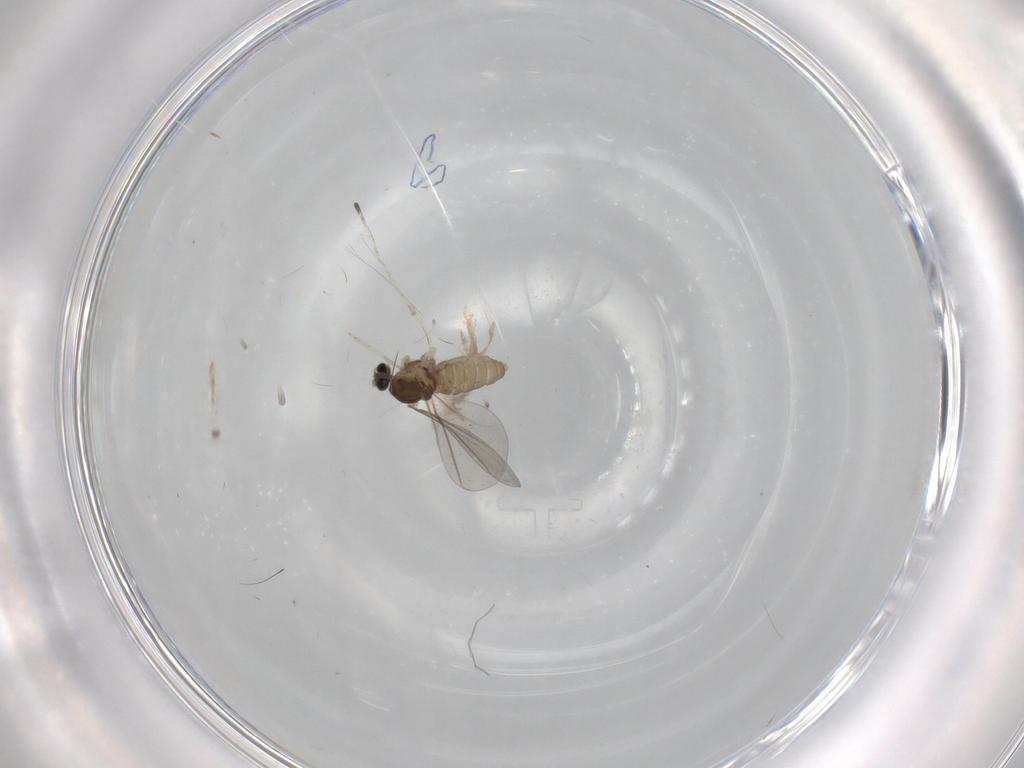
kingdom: Animalia
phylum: Arthropoda
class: Insecta
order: Diptera
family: Cecidomyiidae
